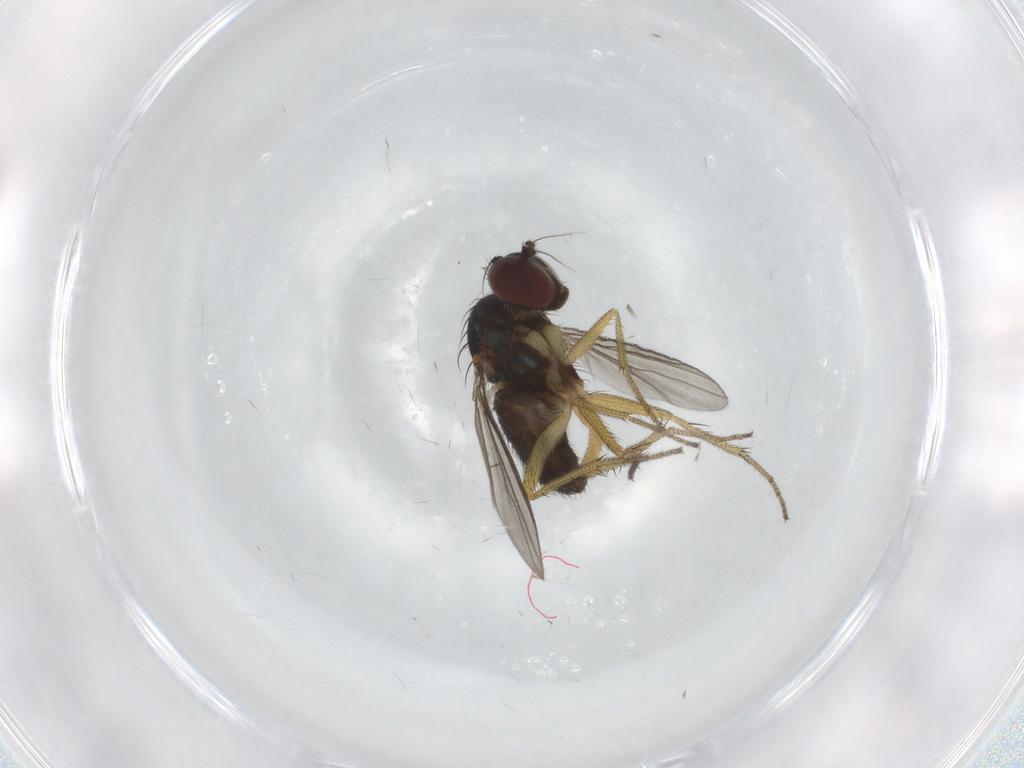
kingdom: Animalia
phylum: Arthropoda
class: Insecta
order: Diptera
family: Dolichopodidae
